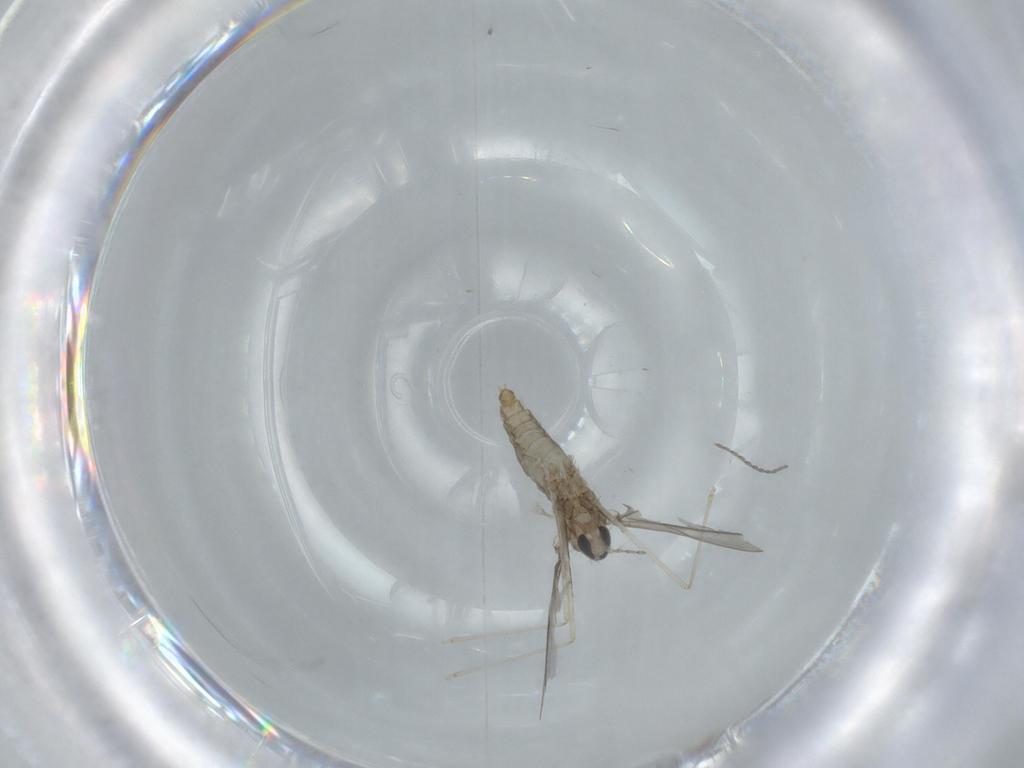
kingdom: Animalia
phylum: Arthropoda
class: Insecta
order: Diptera
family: Cecidomyiidae
